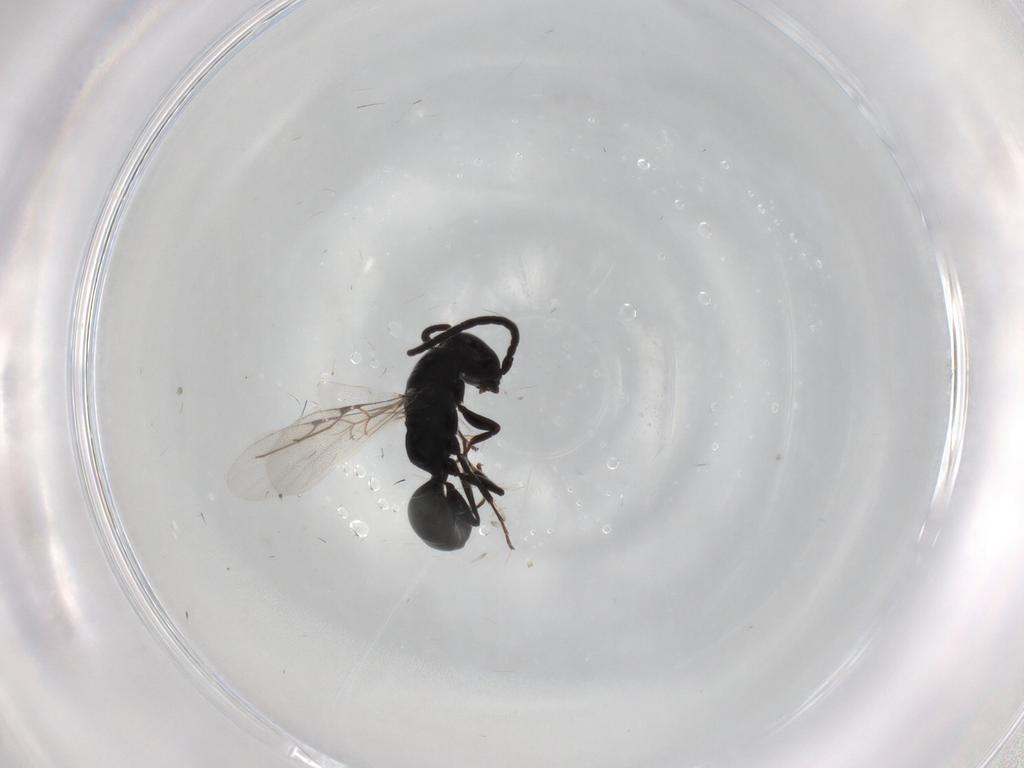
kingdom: Animalia
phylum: Arthropoda
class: Insecta
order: Hymenoptera
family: Bethylidae
